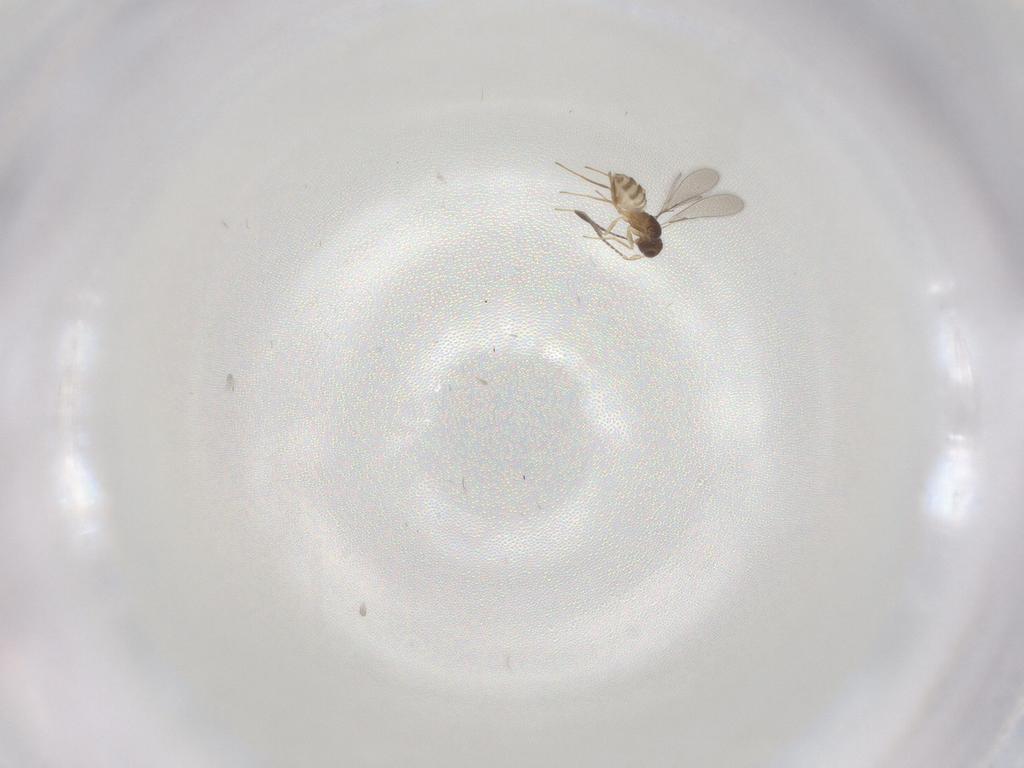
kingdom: Animalia
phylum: Arthropoda
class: Insecta
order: Hymenoptera
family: Mymaridae
